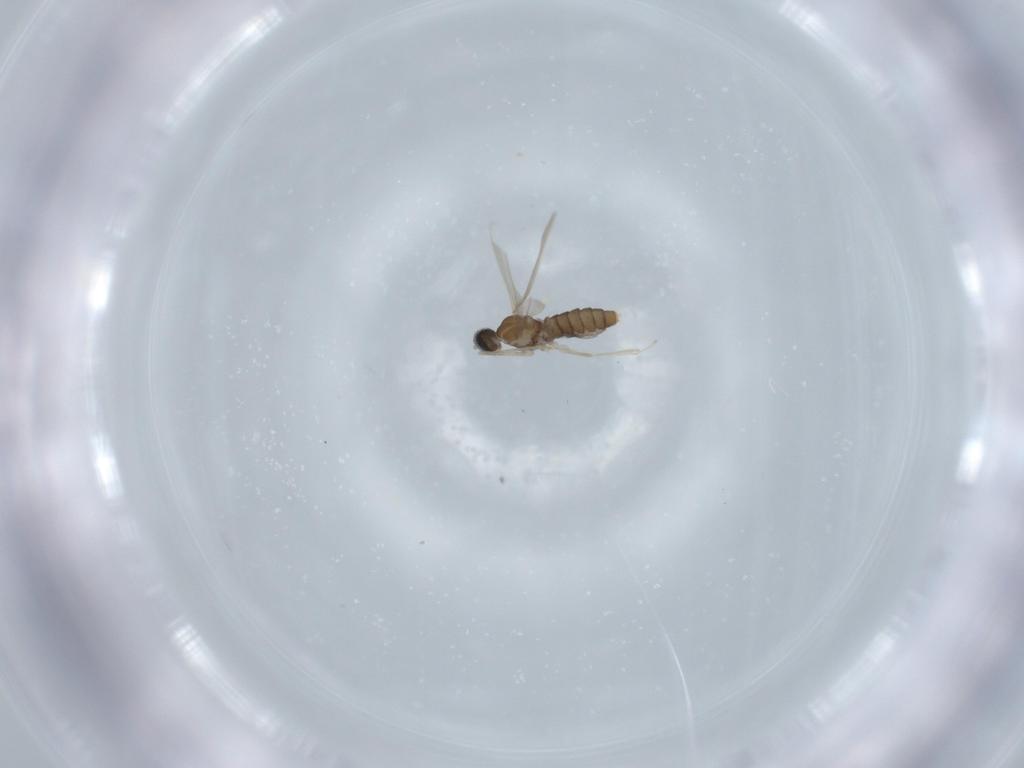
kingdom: Animalia
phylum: Arthropoda
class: Insecta
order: Diptera
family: Cecidomyiidae
